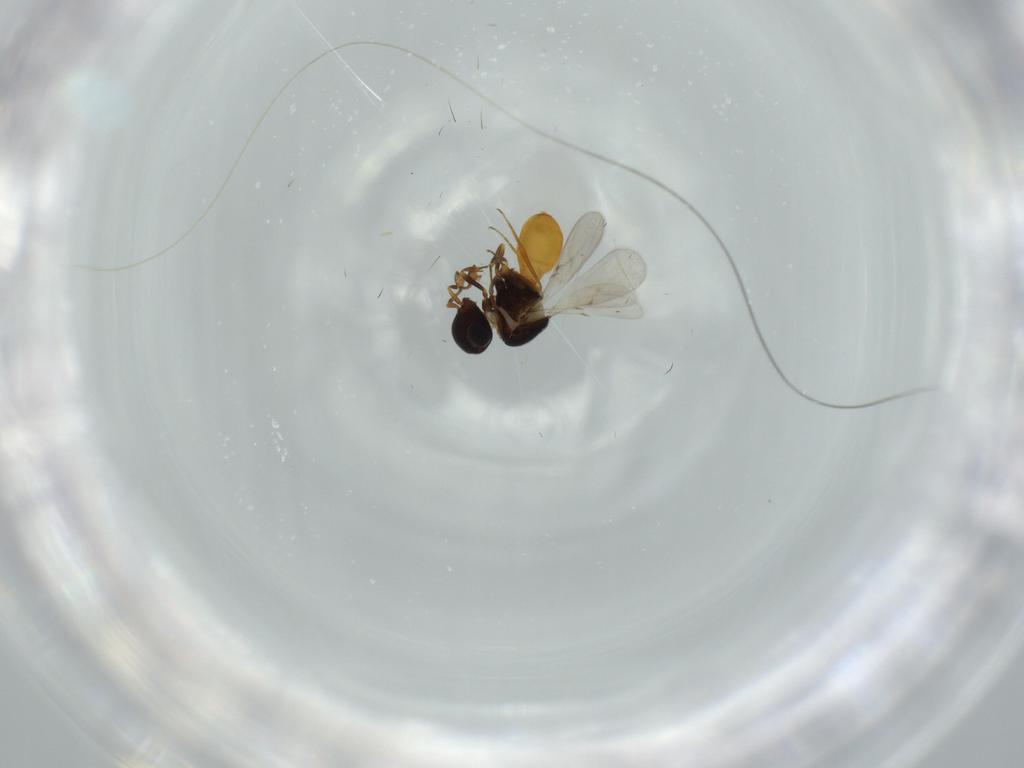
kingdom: Animalia
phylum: Arthropoda
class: Insecta
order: Hymenoptera
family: Scelionidae
